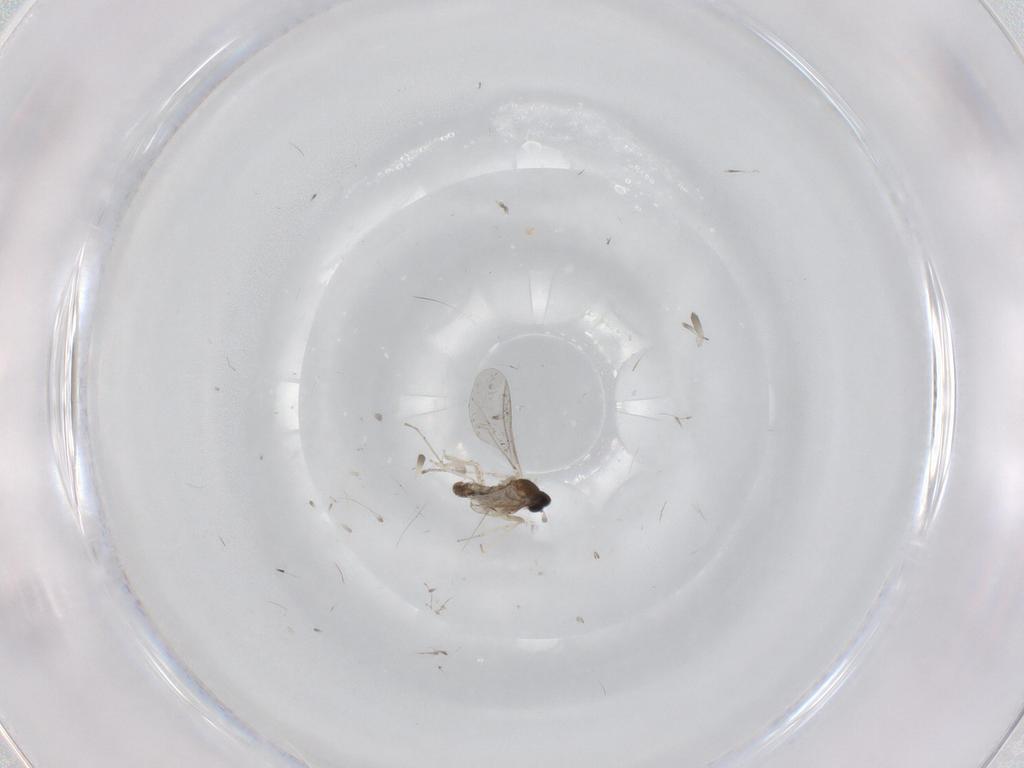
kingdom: Animalia
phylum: Arthropoda
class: Insecta
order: Diptera
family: Cecidomyiidae
